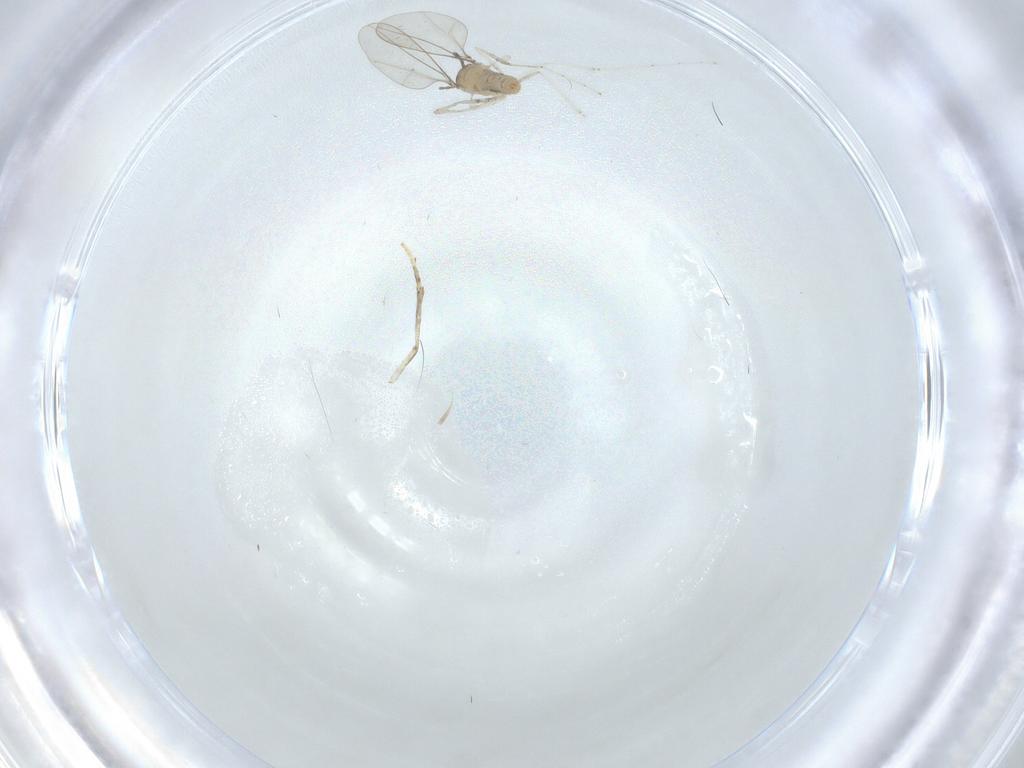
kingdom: Animalia
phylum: Arthropoda
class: Insecta
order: Diptera
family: Psychodidae
